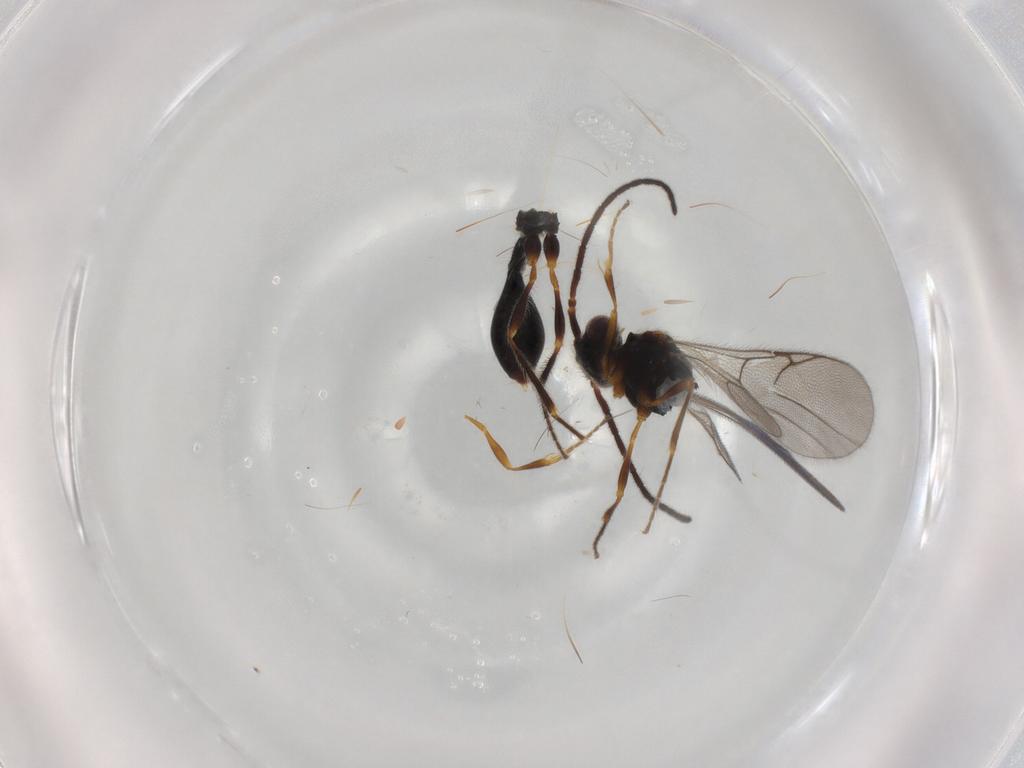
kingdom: Animalia
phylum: Arthropoda
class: Insecta
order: Hymenoptera
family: Diapriidae
